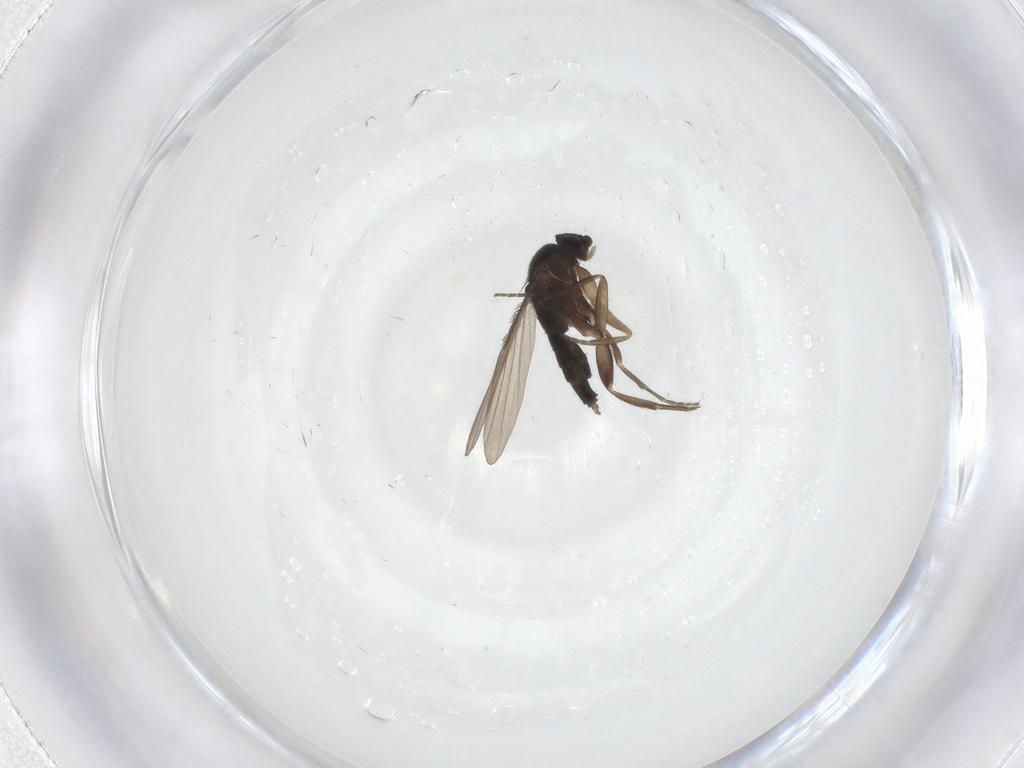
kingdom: Animalia
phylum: Arthropoda
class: Insecta
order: Diptera
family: Phoridae
